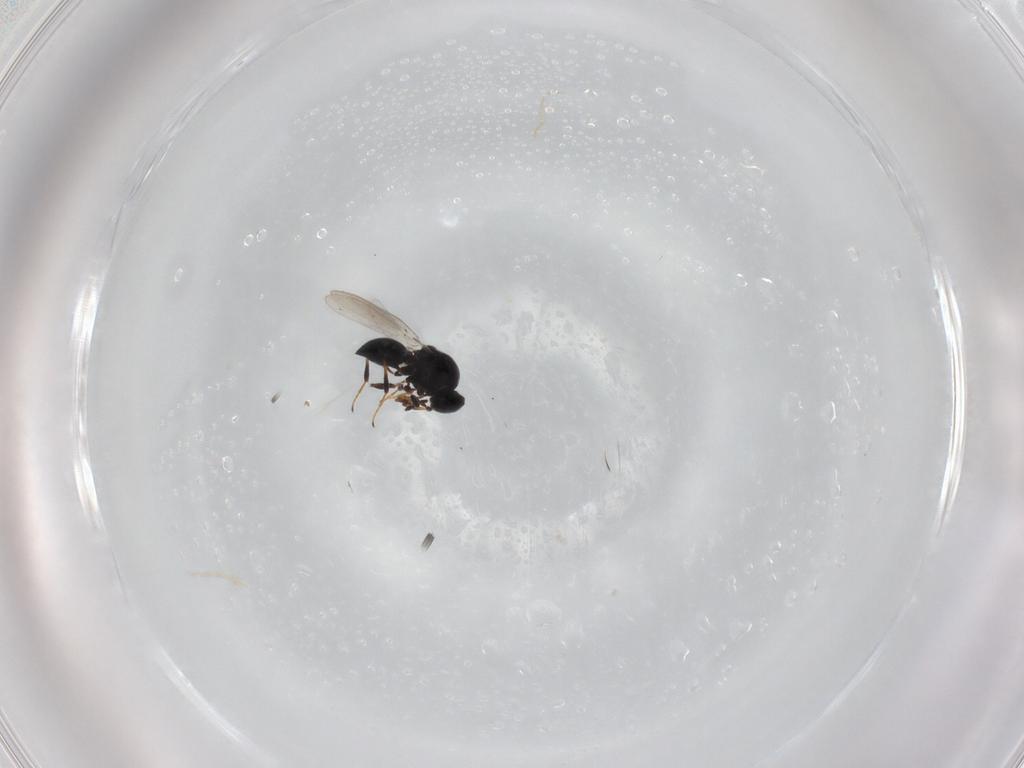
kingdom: Animalia
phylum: Arthropoda
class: Insecta
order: Hymenoptera
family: Platygastridae
